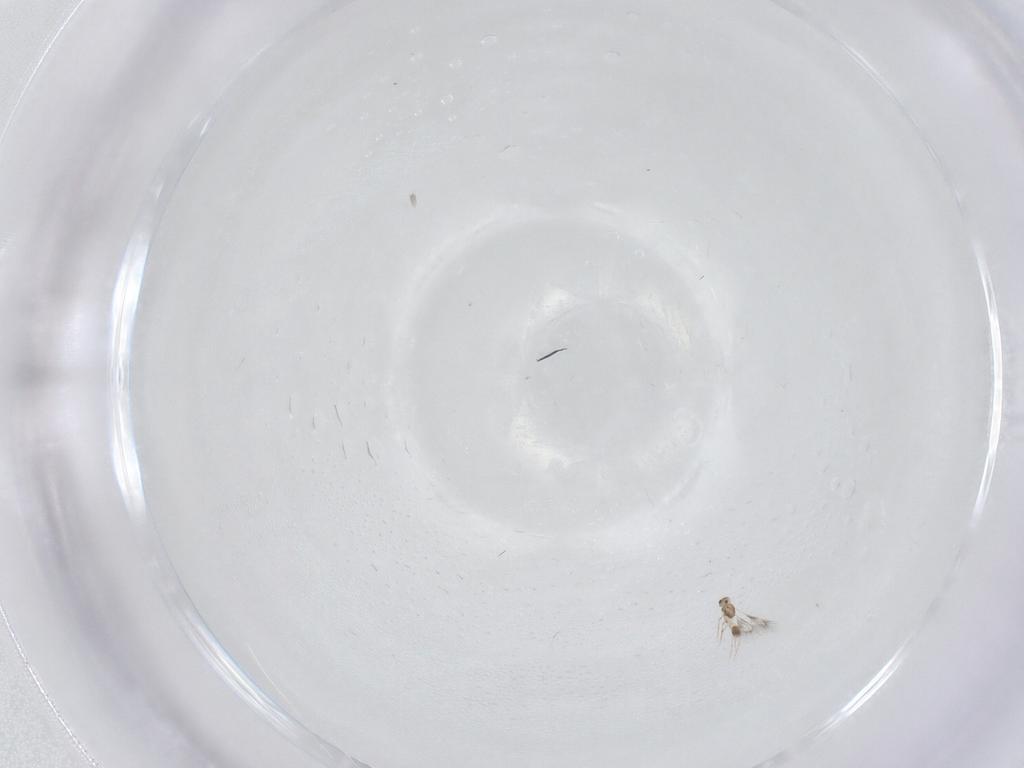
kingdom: Animalia
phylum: Arthropoda
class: Insecta
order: Hymenoptera
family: Mymarommatidae
